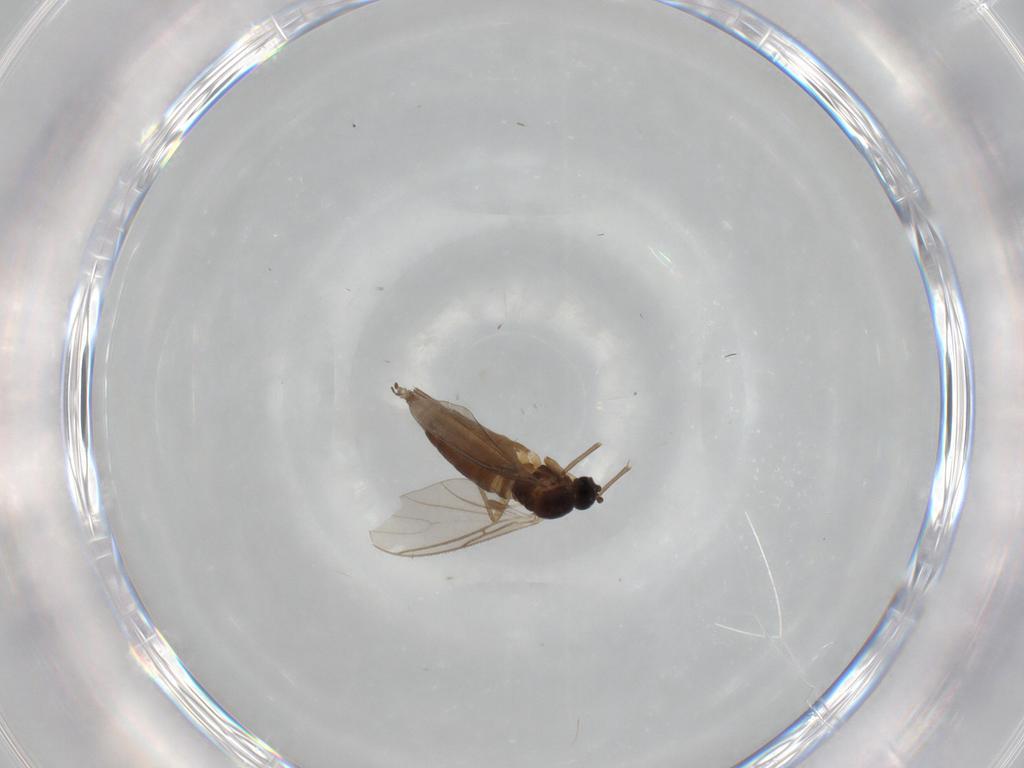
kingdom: Animalia
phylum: Arthropoda
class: Insecta
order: Diptera
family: Sciaridae
